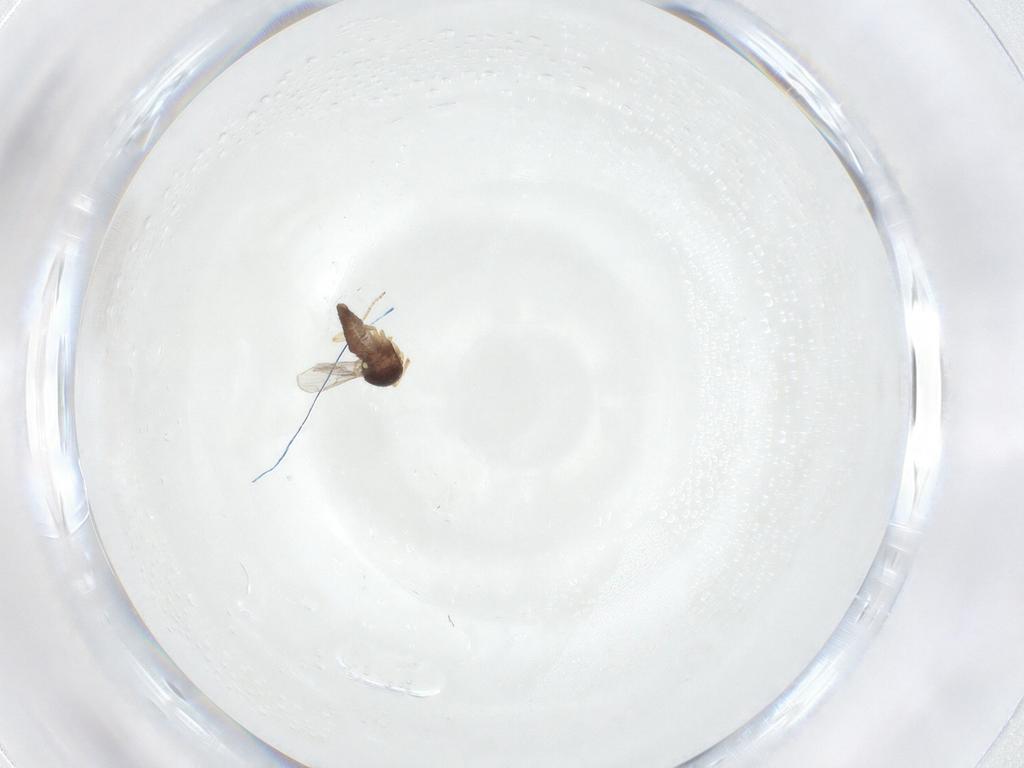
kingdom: Animalia
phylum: Arthropoda
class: Insecta
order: Diptera
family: Ceratopogonidae
